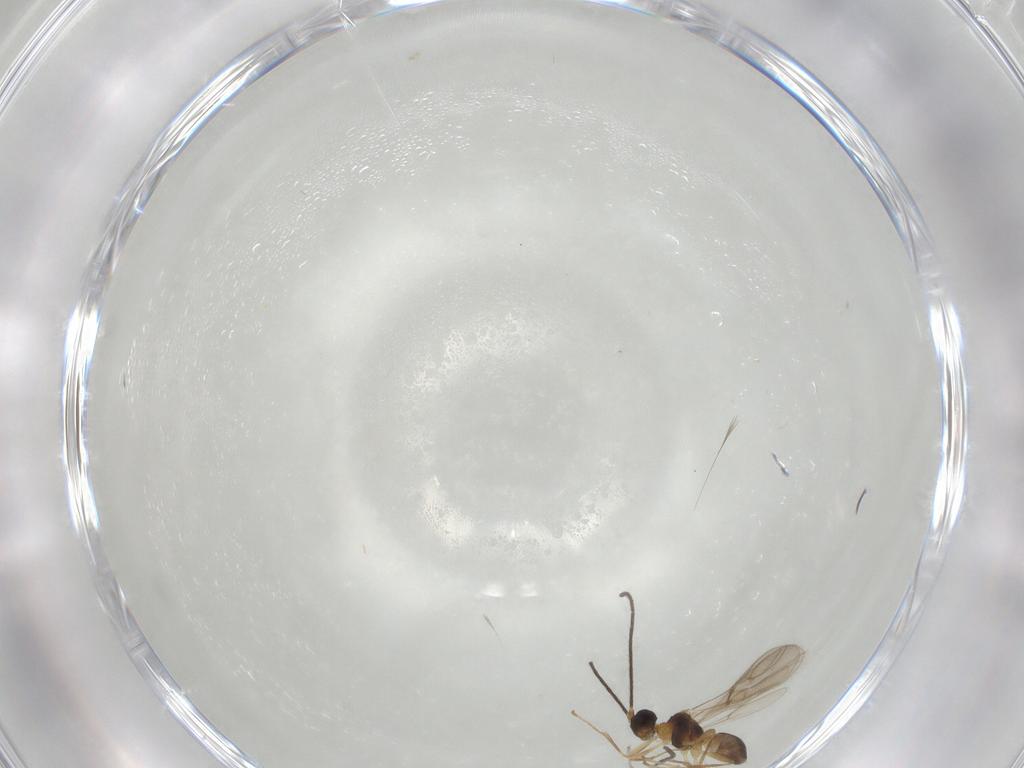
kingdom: Animalia
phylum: Arthropoda
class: Insecta
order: Hymenoptera
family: Braconidae
